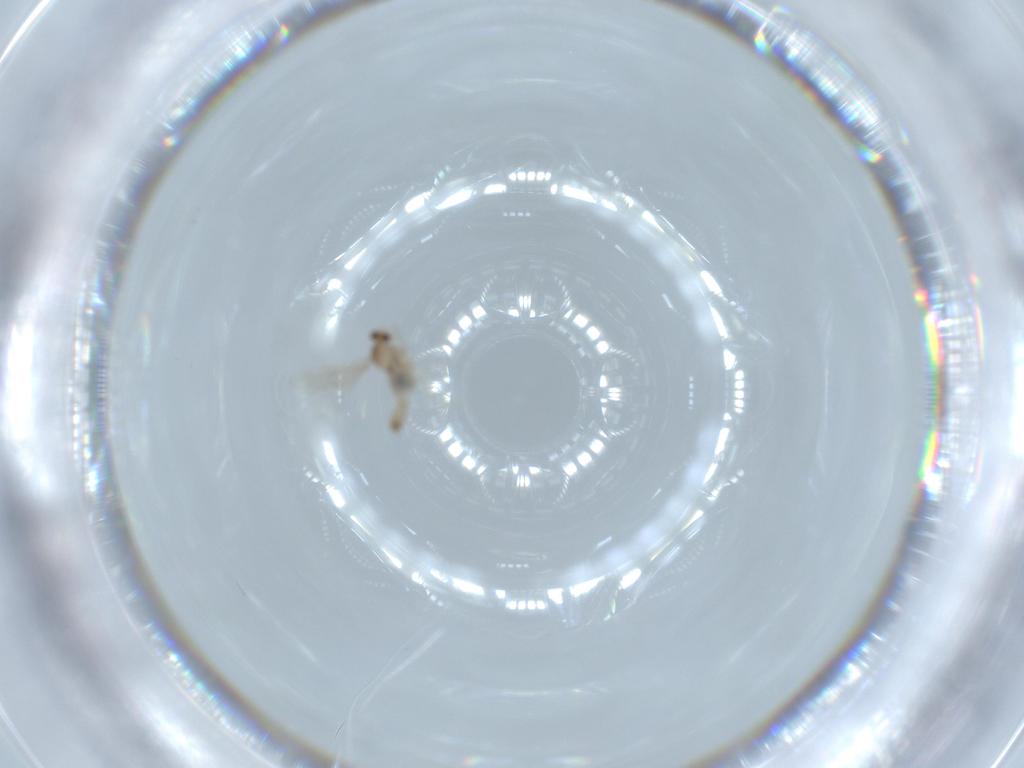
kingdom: Animalia
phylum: Arthropoda
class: Insecta
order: Diptera
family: Cecidomyiidae
